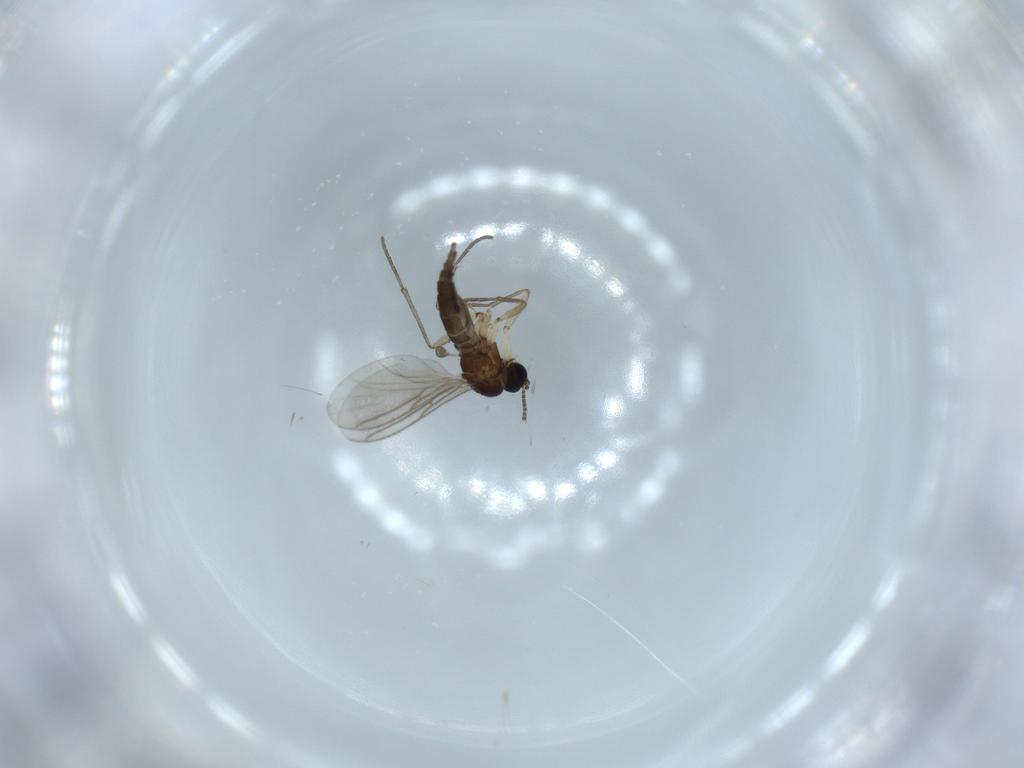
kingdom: Animalia
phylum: Arthropoda
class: Insecta
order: Diptera
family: Sciaridae
